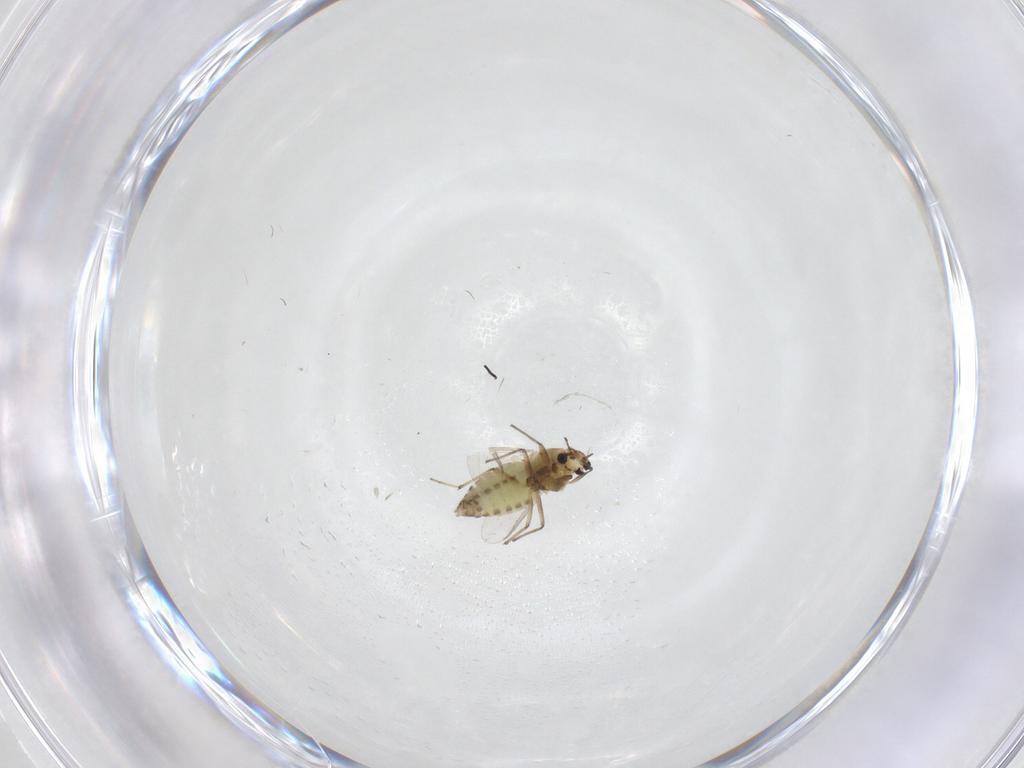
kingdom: Animalia
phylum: Arthropoda
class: Insecta
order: Diptera
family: Chironomidae
